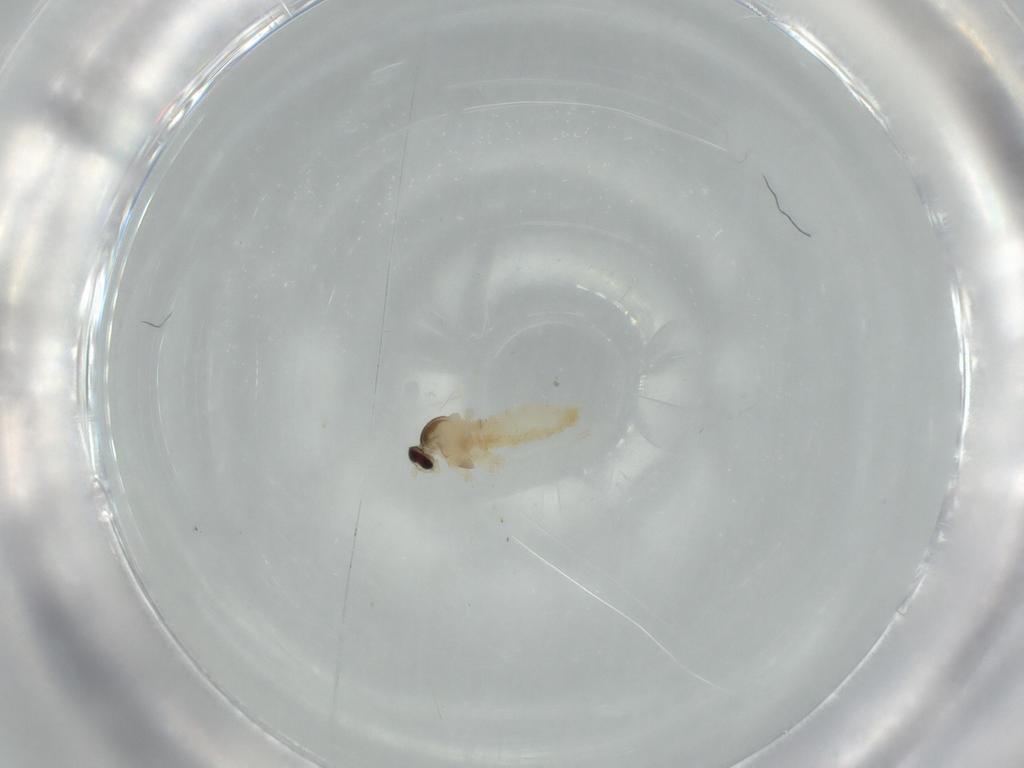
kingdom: Animalia
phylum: Arthropoda
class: Insecta
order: Diptera
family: Cecidomyiidae
